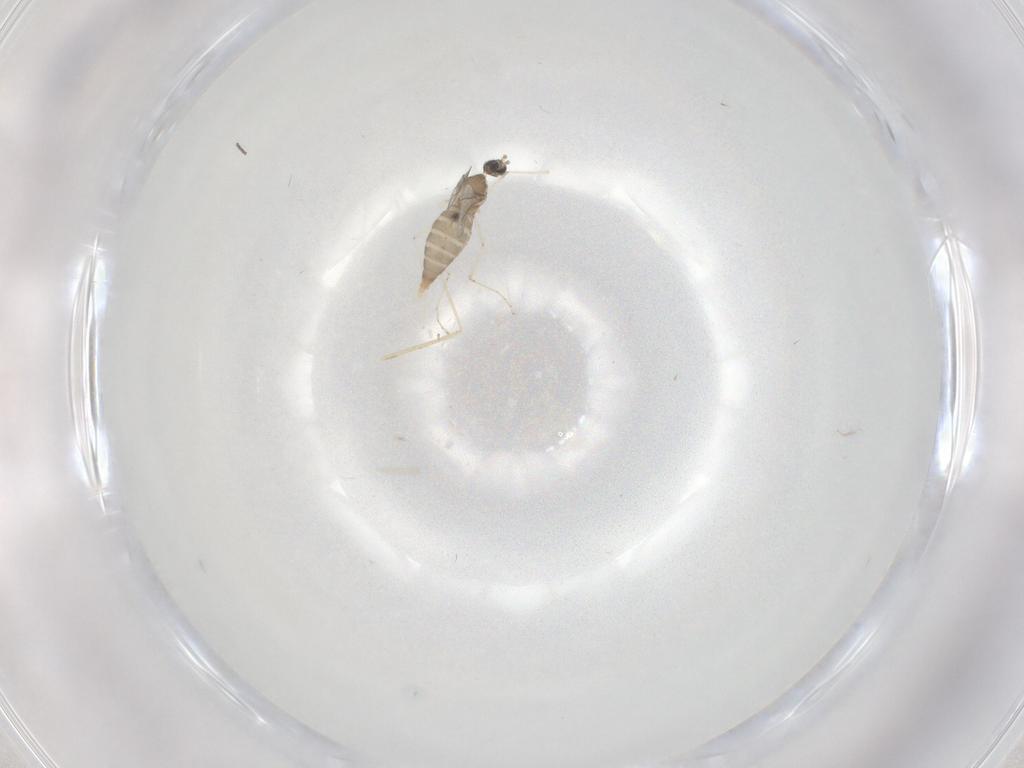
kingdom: Animalia
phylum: Arthropoda
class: Insecta
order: Diptera
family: Cecidomyiidae
